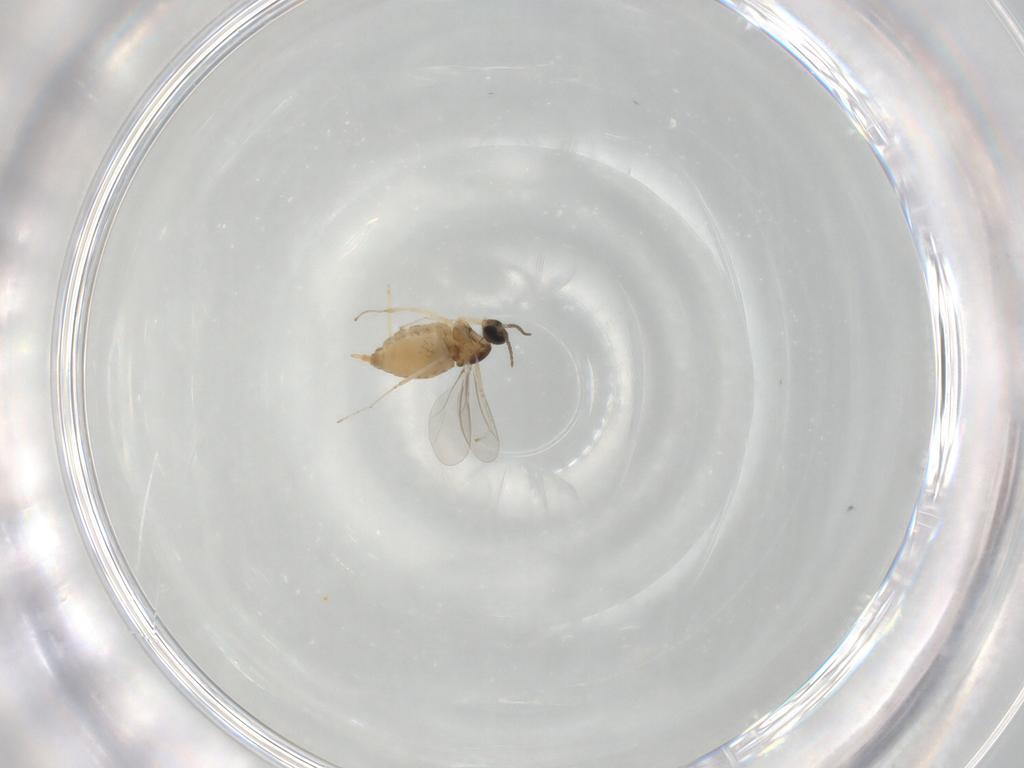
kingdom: Animalia
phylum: Arthropoda
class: Insecta
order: Diptera
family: Cecidomyiidae
